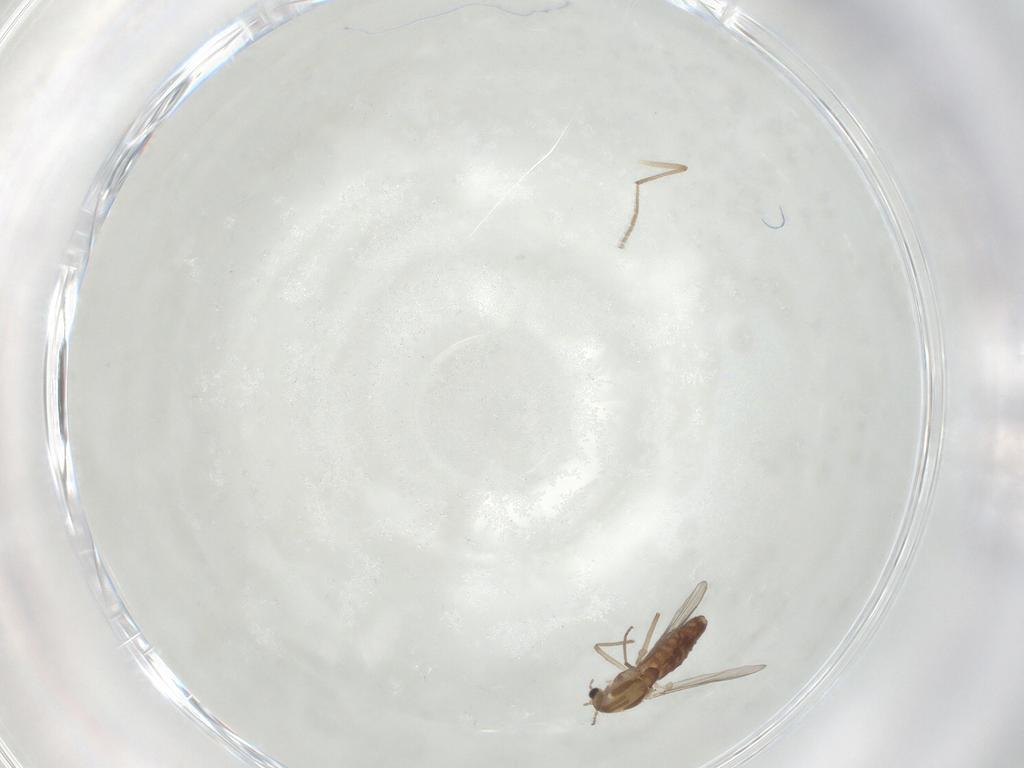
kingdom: Animalia
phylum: Arthropoda
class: Insecta
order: Diptera
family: Chironomidae
